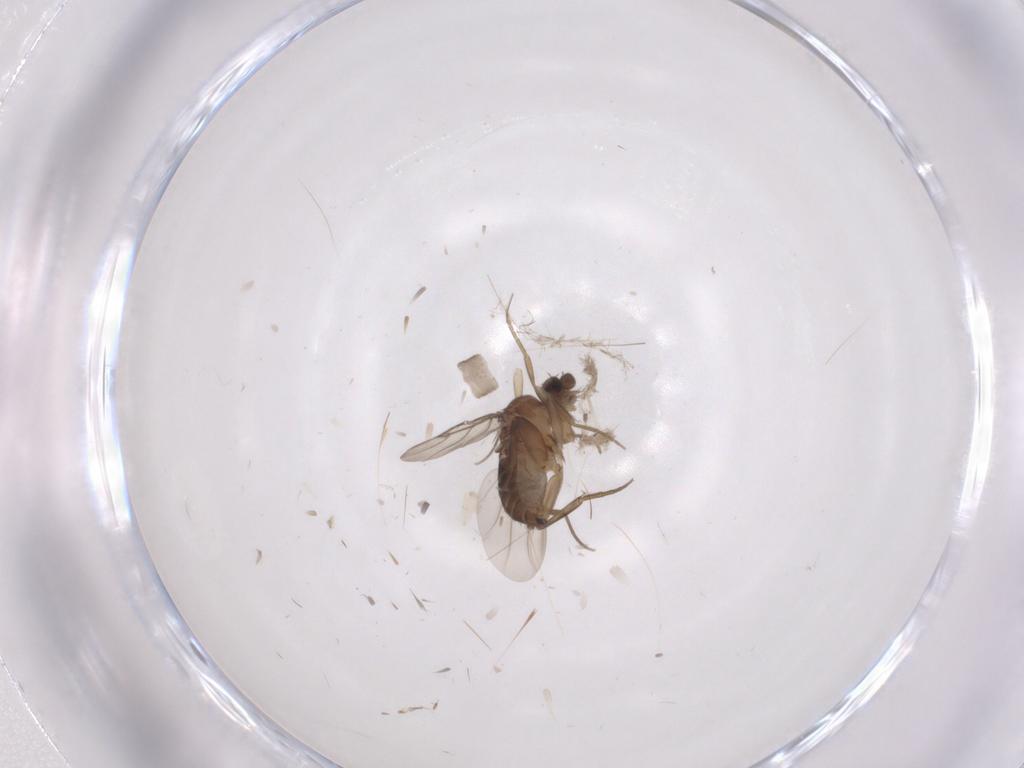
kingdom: Animalia
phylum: Arthropoda
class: Insecta
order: Diptera
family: Phoridae
